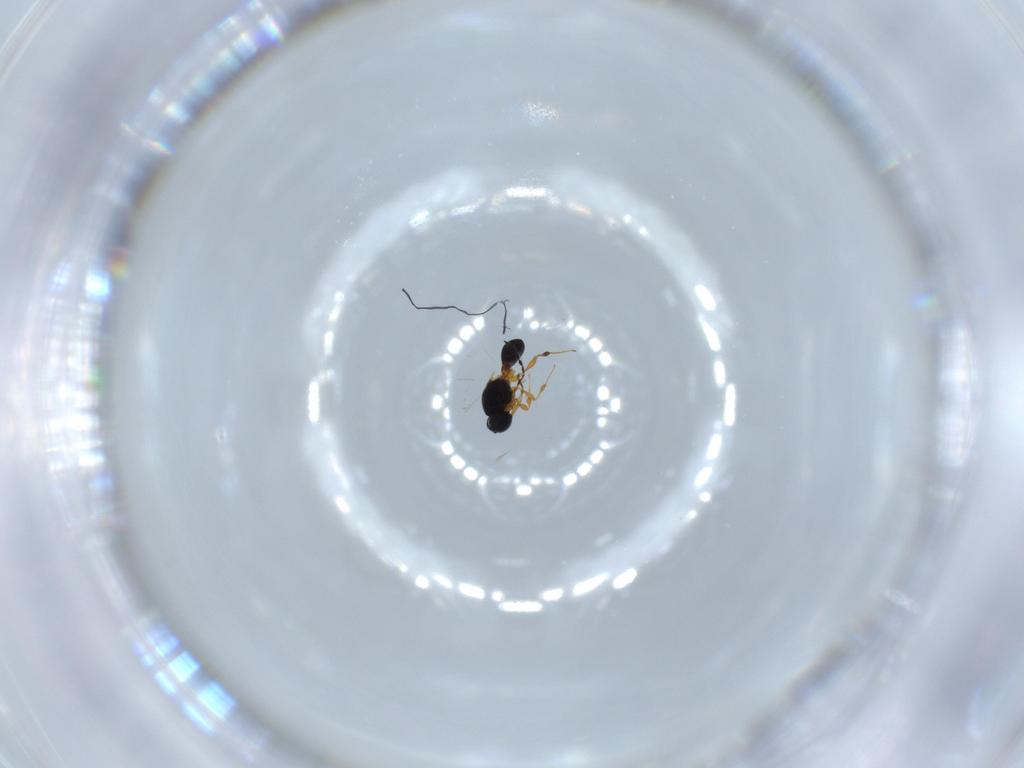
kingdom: Animalia
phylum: Arthropoda
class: Insecta
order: Hymenoptera
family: Platygastridae
